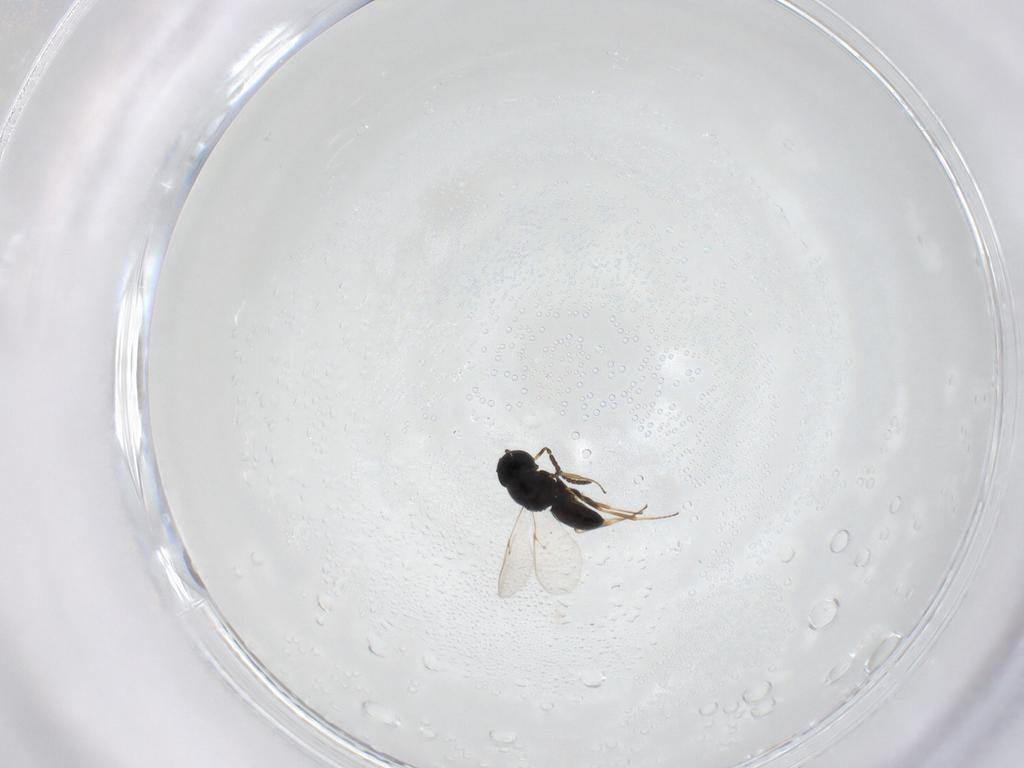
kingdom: Animalia
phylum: Arthropoda
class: Insecta
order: Hymenoptera
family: Scelionidae
